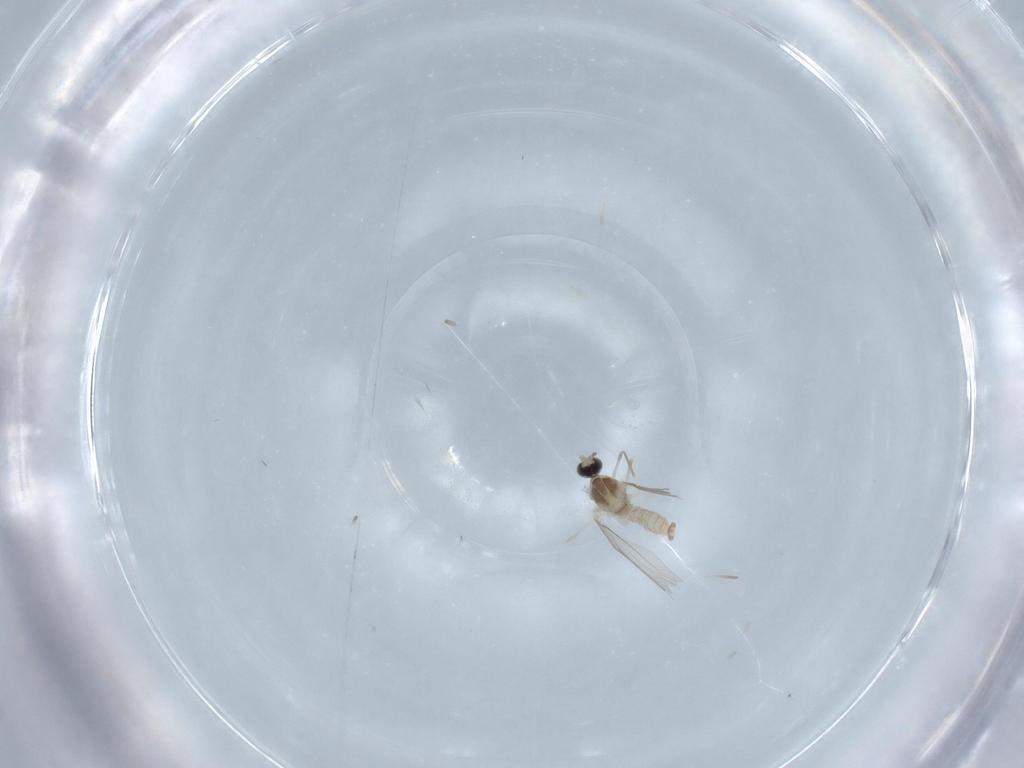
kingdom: Animalia
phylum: Arthropoda
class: Insecta
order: Diptera
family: Cecidomyiidae
